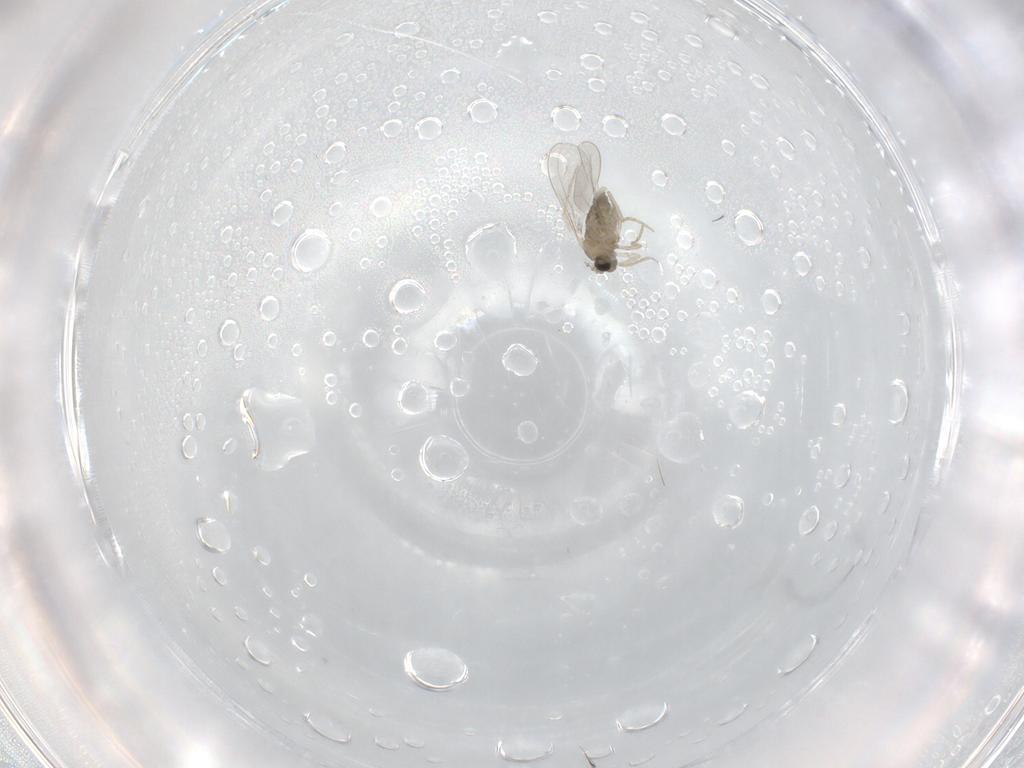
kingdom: Animalia
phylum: Arthropoda
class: Insecta
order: Diptera
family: Cecidomyiidae
